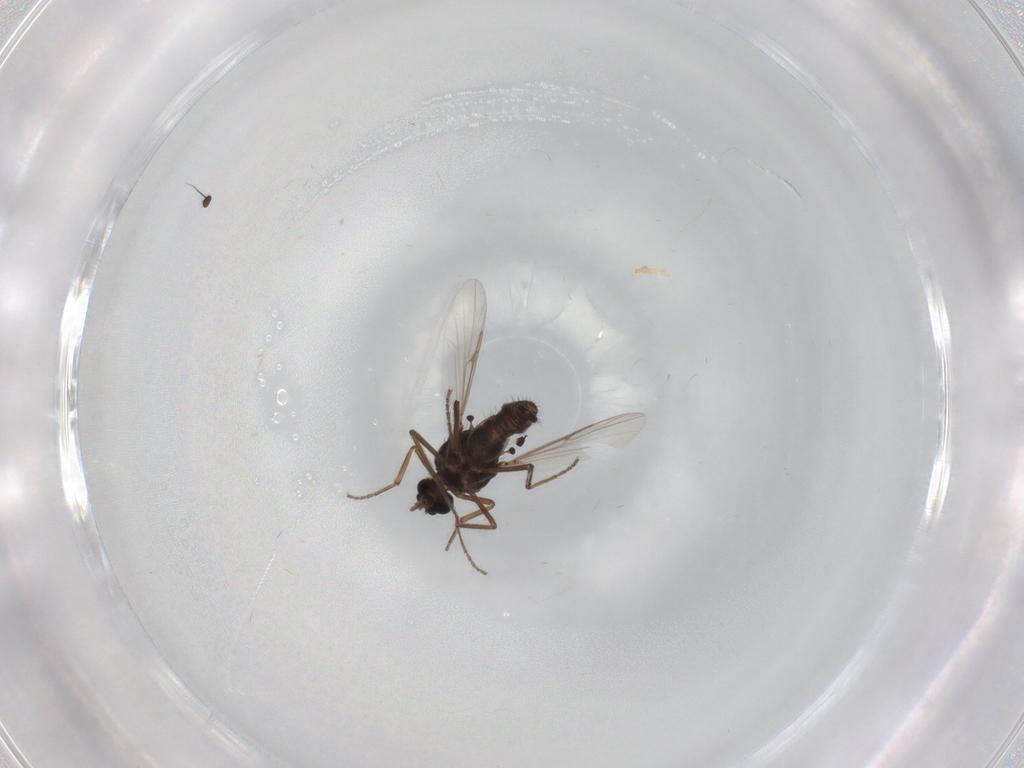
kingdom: Animalia
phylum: Arthropoda
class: Insecta
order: Diptera
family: Ceratopogonidae
